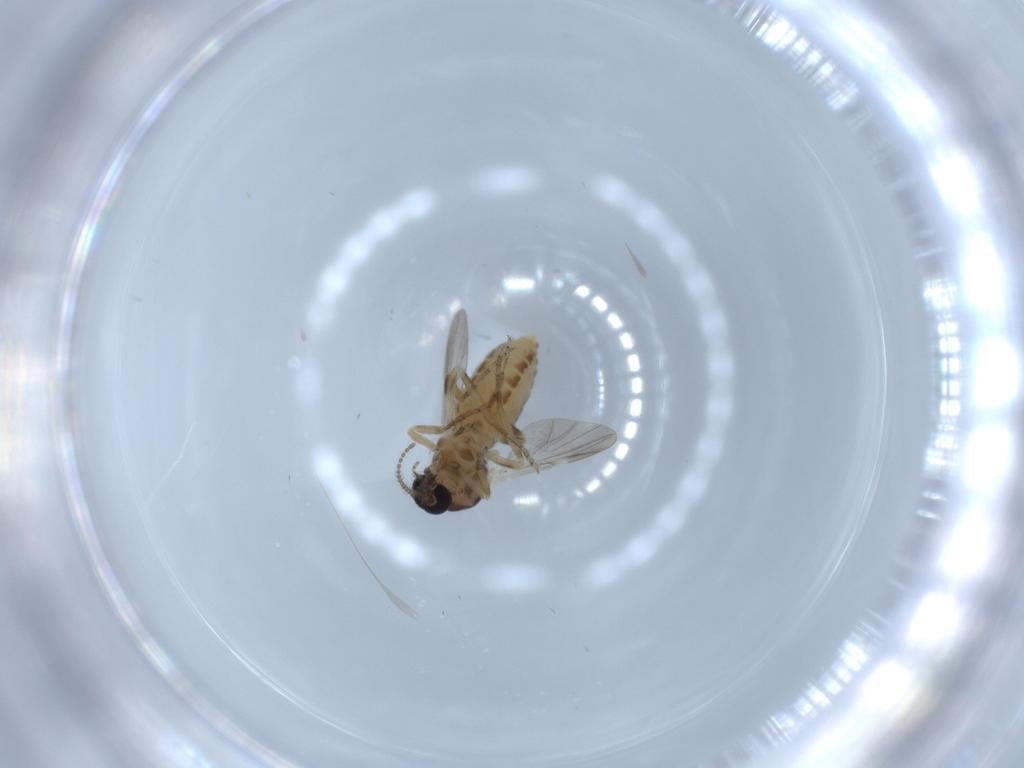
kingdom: Animalia
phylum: Arthropoda
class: Insecta
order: Diptera
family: Ceratopogonidae
